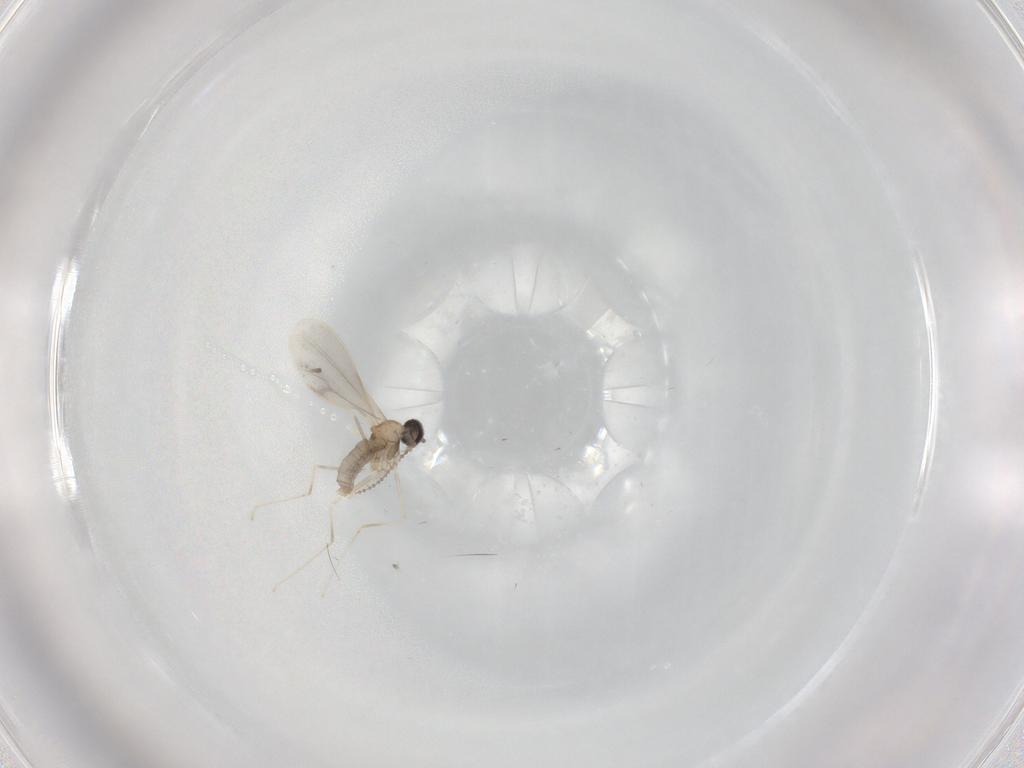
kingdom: Animalia
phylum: Arthropoda
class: Insecta
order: Diptera
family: Cecidomyiidae
